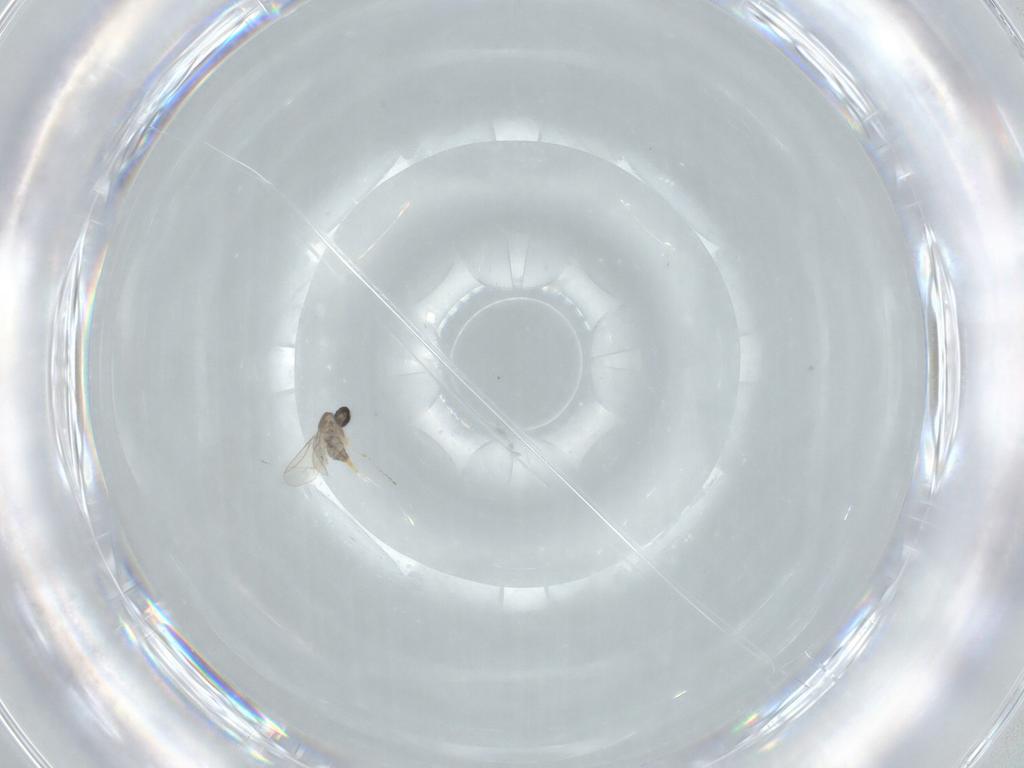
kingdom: Animalia
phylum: Arthropoda
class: Insecta
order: Diptera
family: Cecidomyiidae
